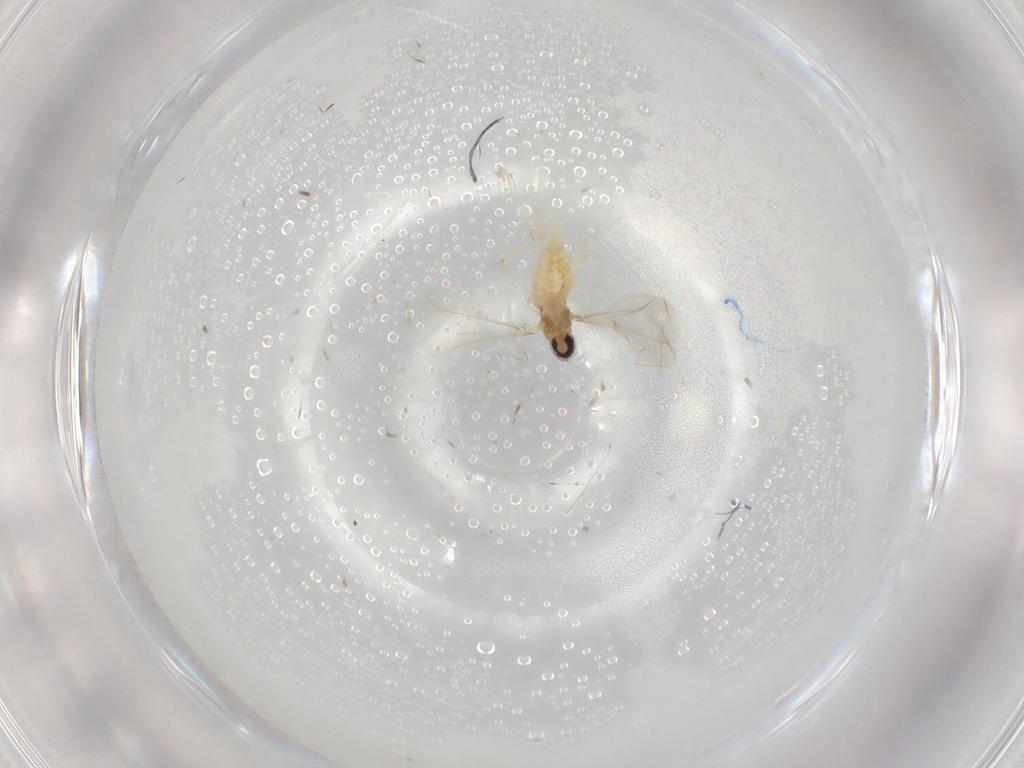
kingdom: Animalia
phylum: Arthropoda
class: Insecta
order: Diptera
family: Cecidomyiidae
